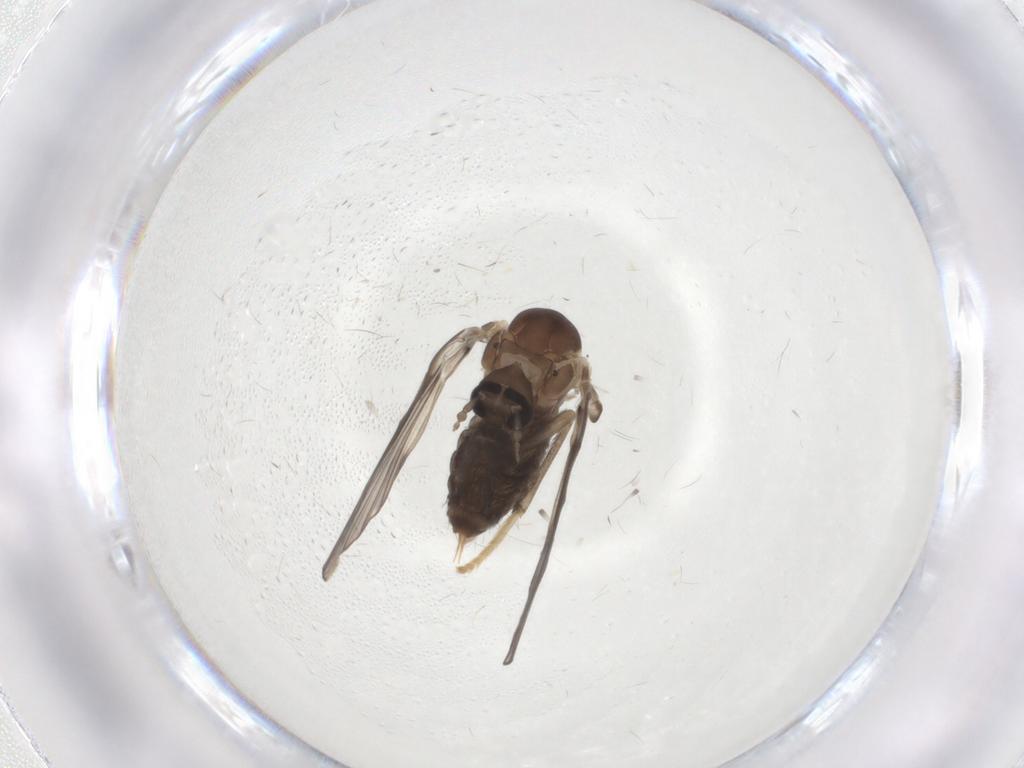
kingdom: Animalia
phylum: Arthropoda
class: Insecta
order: Diptera
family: Psychodidae
